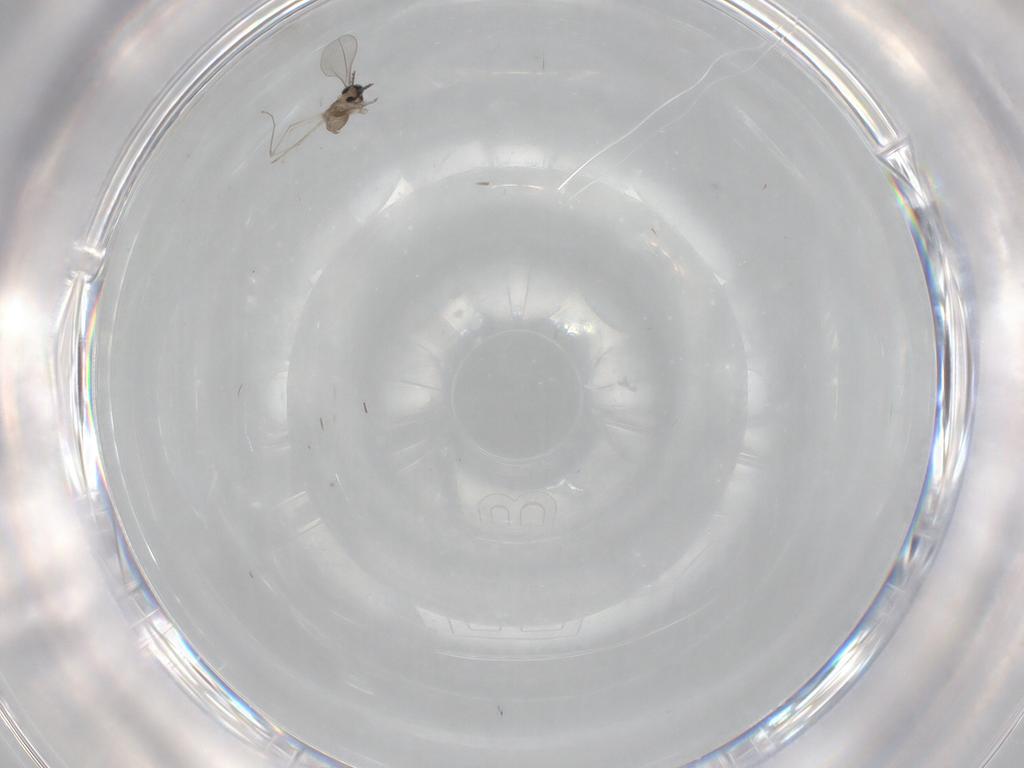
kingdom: Animalia
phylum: Arthropoda
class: Insecta
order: Diptera
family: Cecidomyiidae
